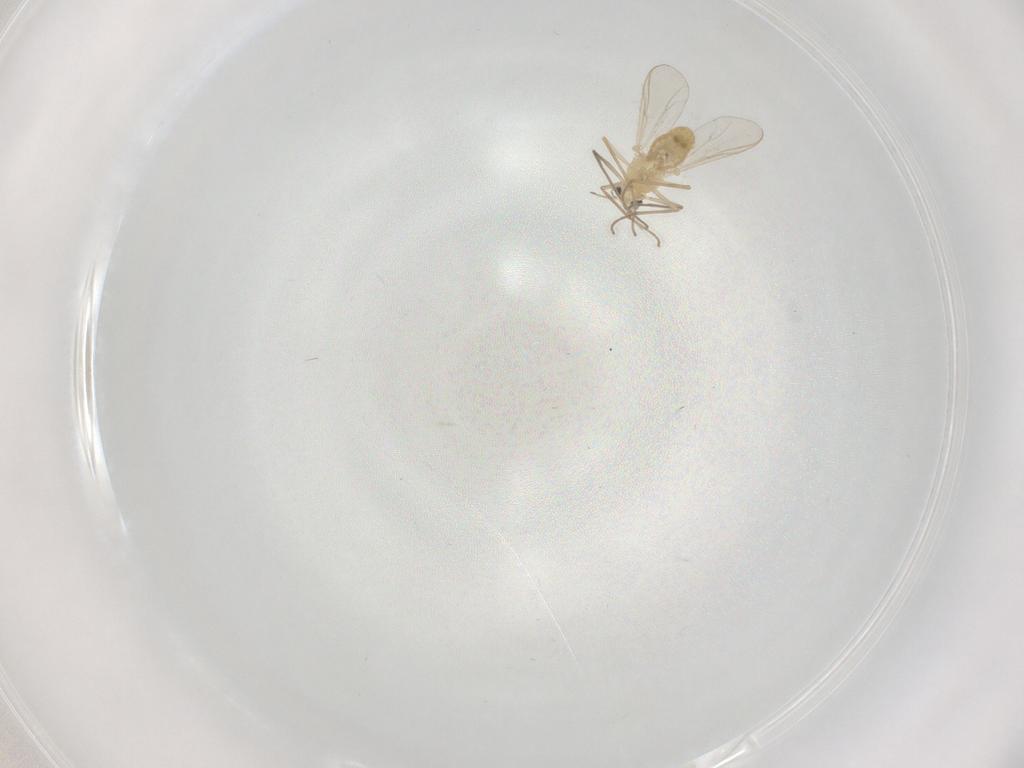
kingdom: Animalia
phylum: Arthropoda
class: Insecta
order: Diptera
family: Chironomidae
